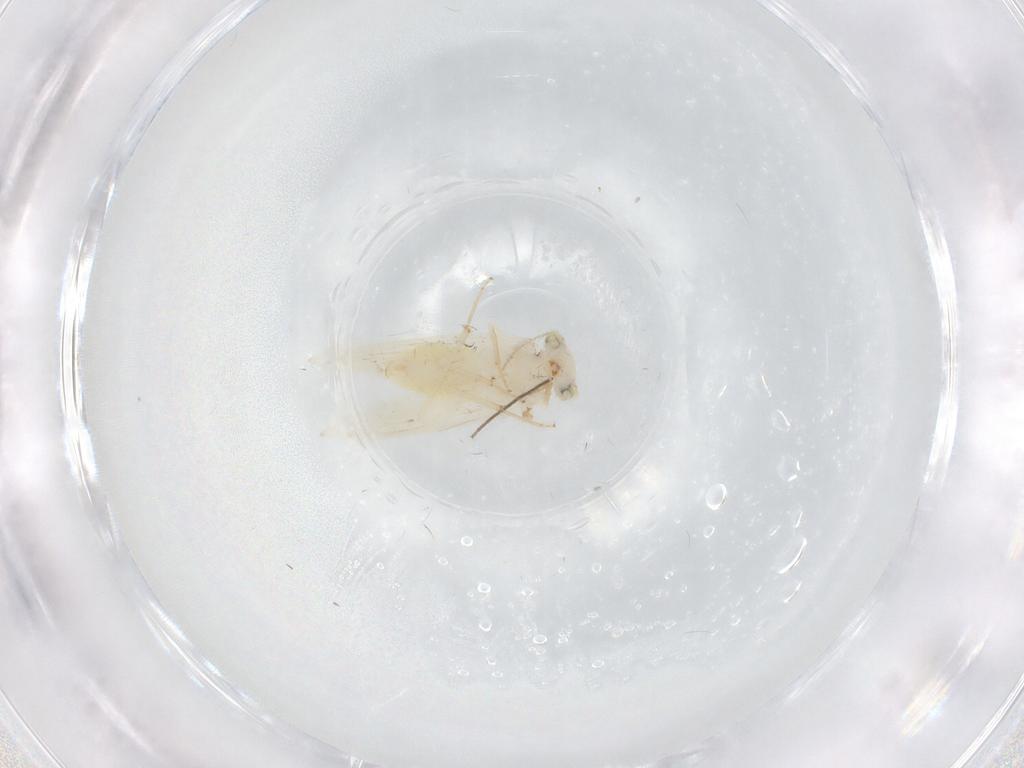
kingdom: Animalia
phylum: Arthropoda
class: Insecta
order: Psocodea
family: Lepidopsocidae
